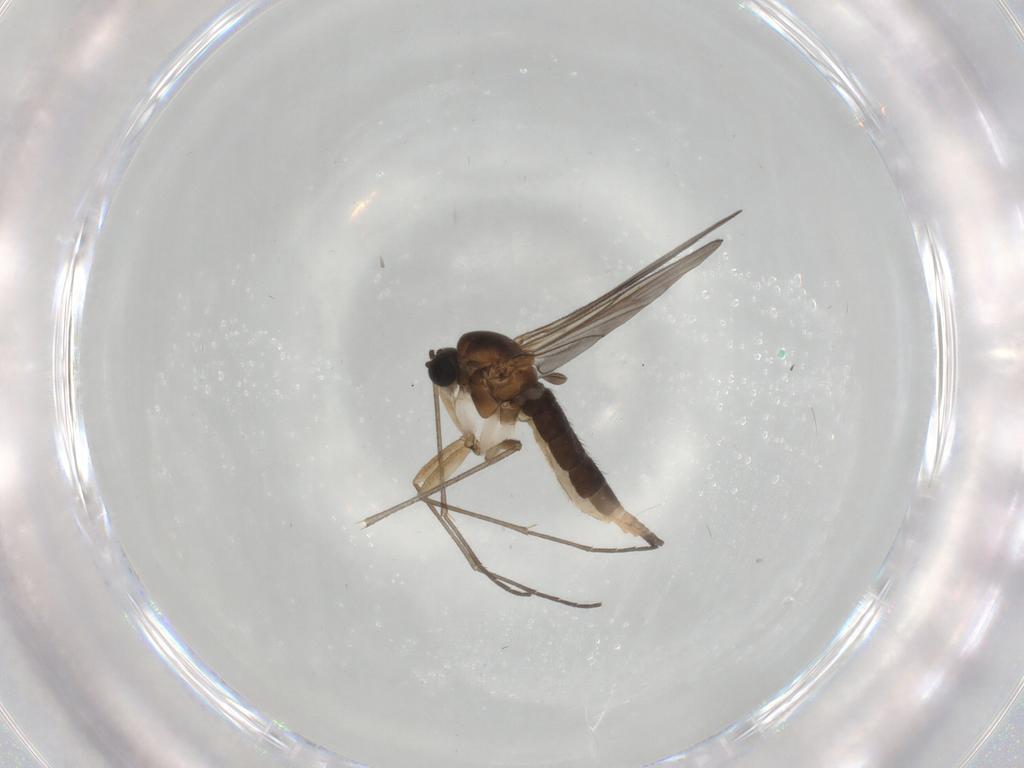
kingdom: Animalia
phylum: Arthropoda
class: Insecta
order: Diptera
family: Sciaridae
